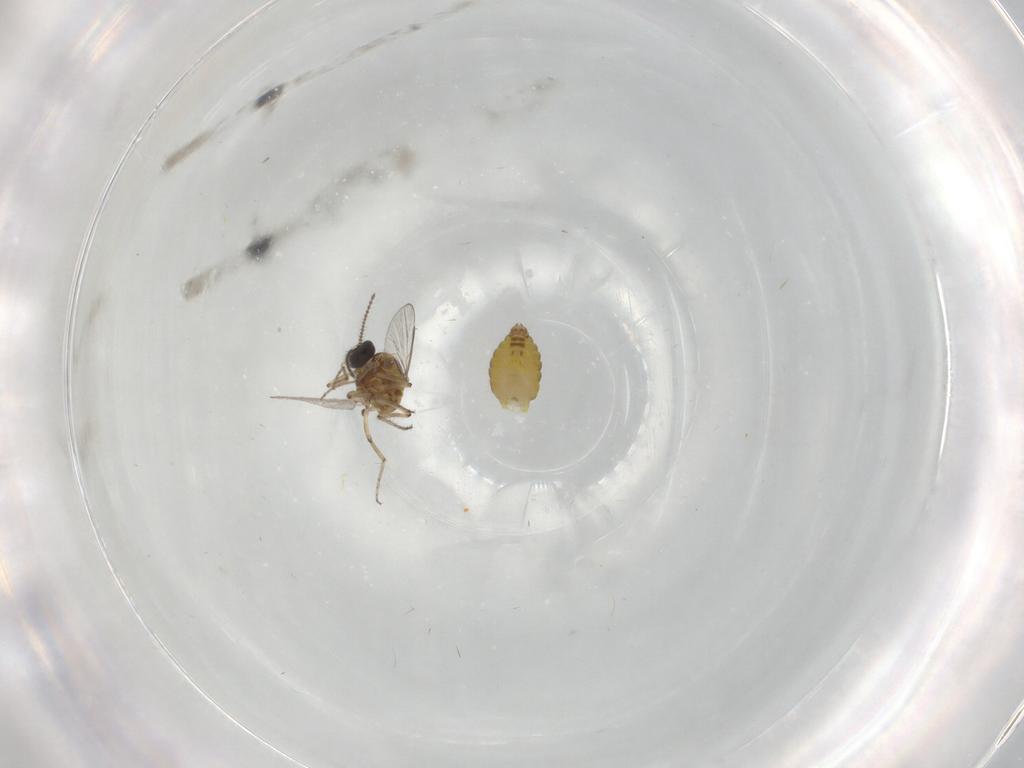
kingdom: Animalia
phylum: Arthropoda
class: Insecta
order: Diptera
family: Ceratopogonidae
